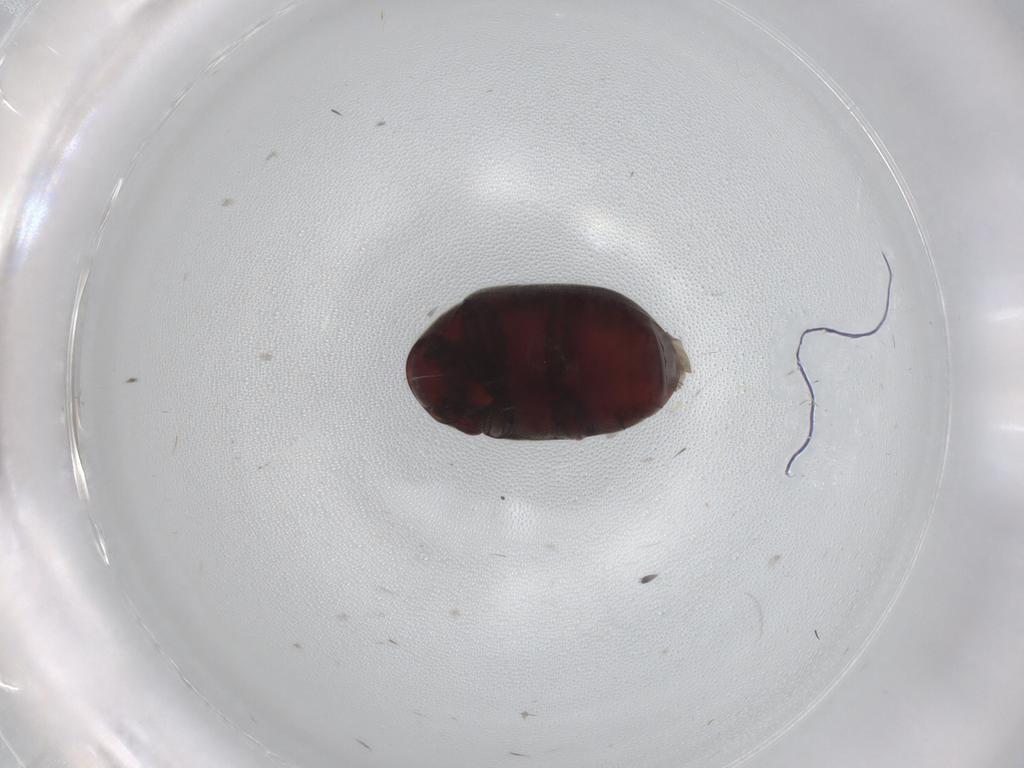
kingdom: Animalia
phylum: Arthropoda
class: Insecta
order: Coleoptera
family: Ptinidae
